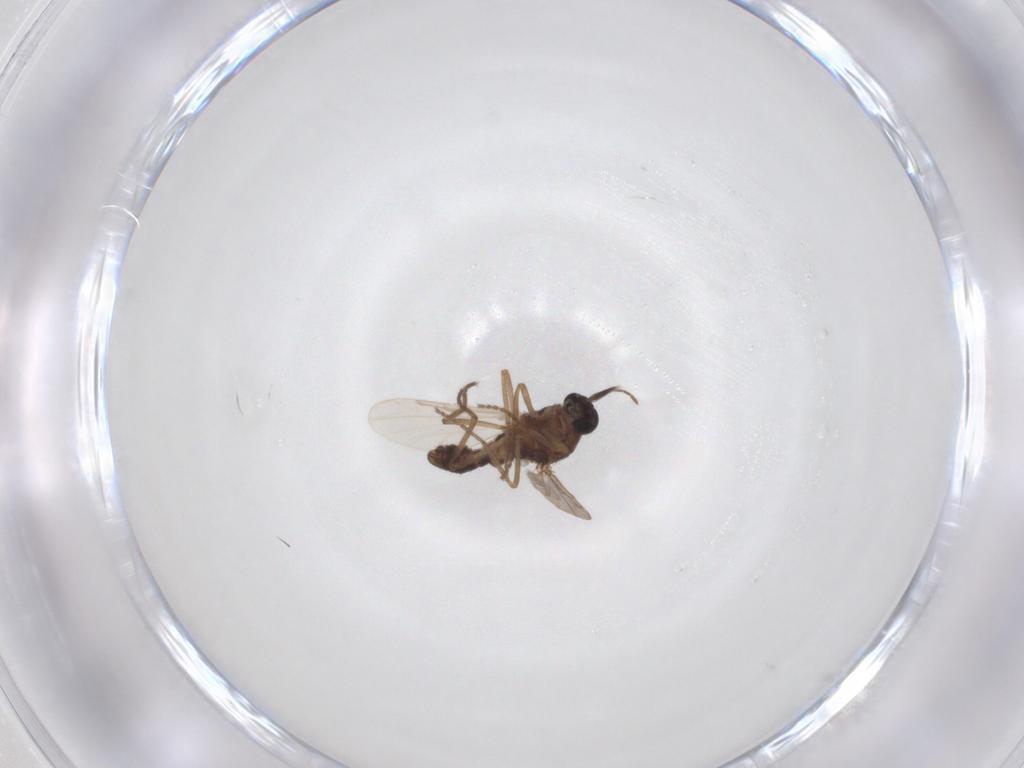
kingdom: Animalia
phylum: Arthropoda
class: Insecta
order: Diptera
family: Ceratopogonidae
